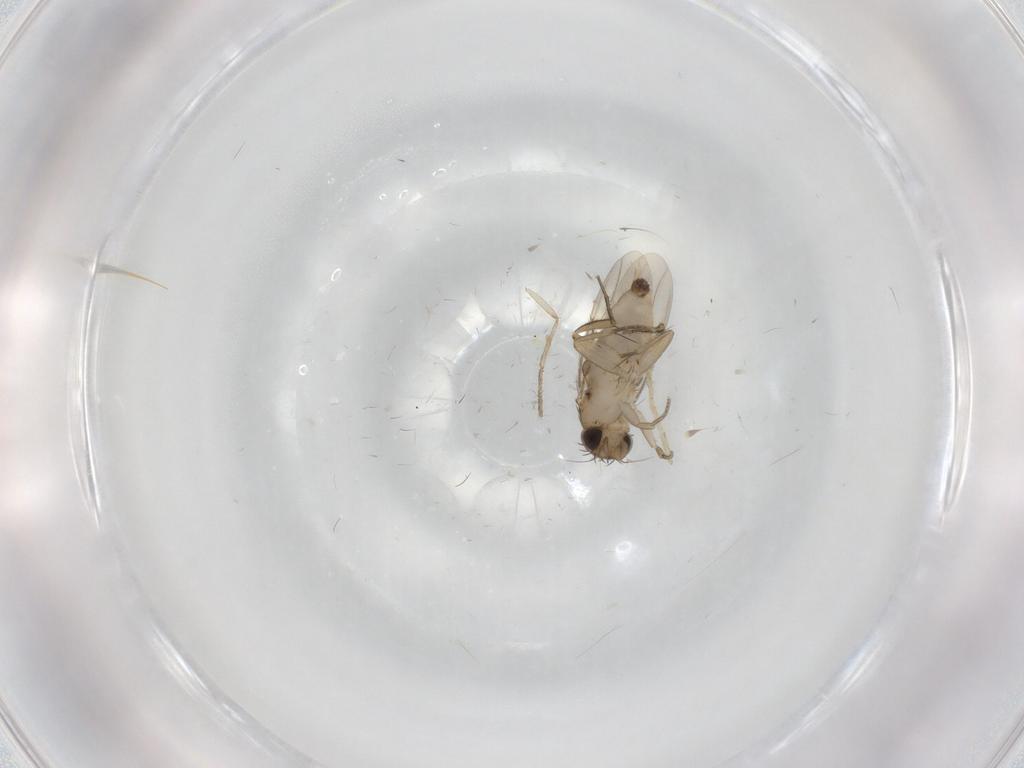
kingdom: Animalia
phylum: Arthropoda
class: Insecta
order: Diptera
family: Phoridae
